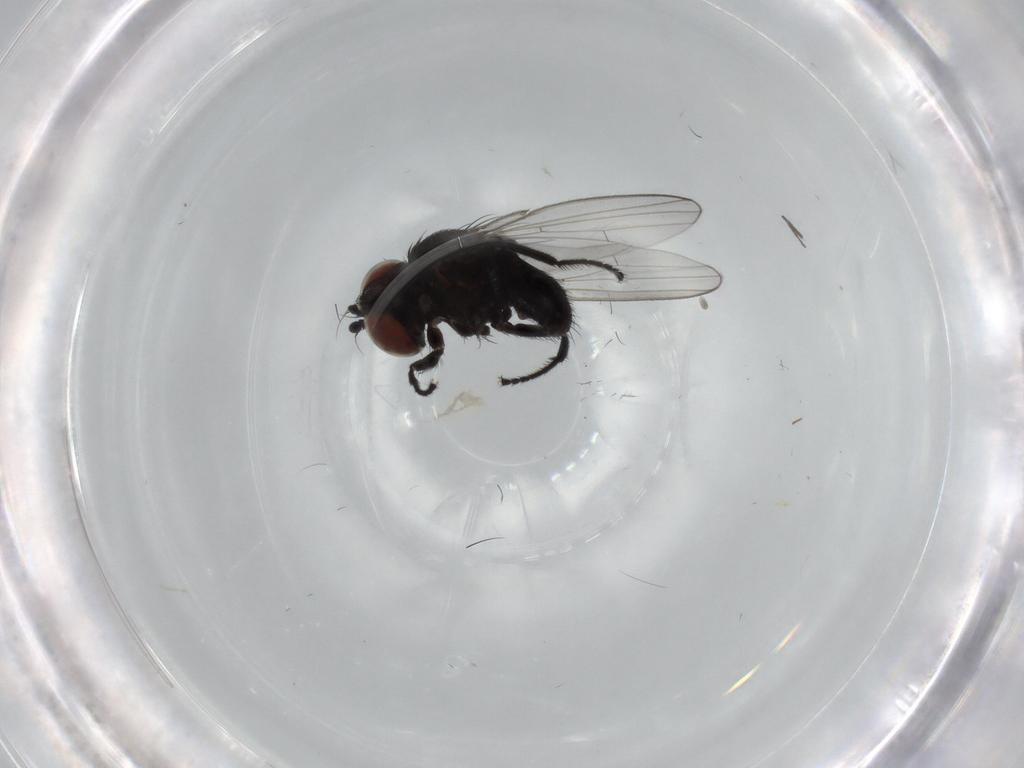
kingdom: Animalia
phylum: Arthropoda
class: Insecta
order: Diptera
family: Milichiidae
